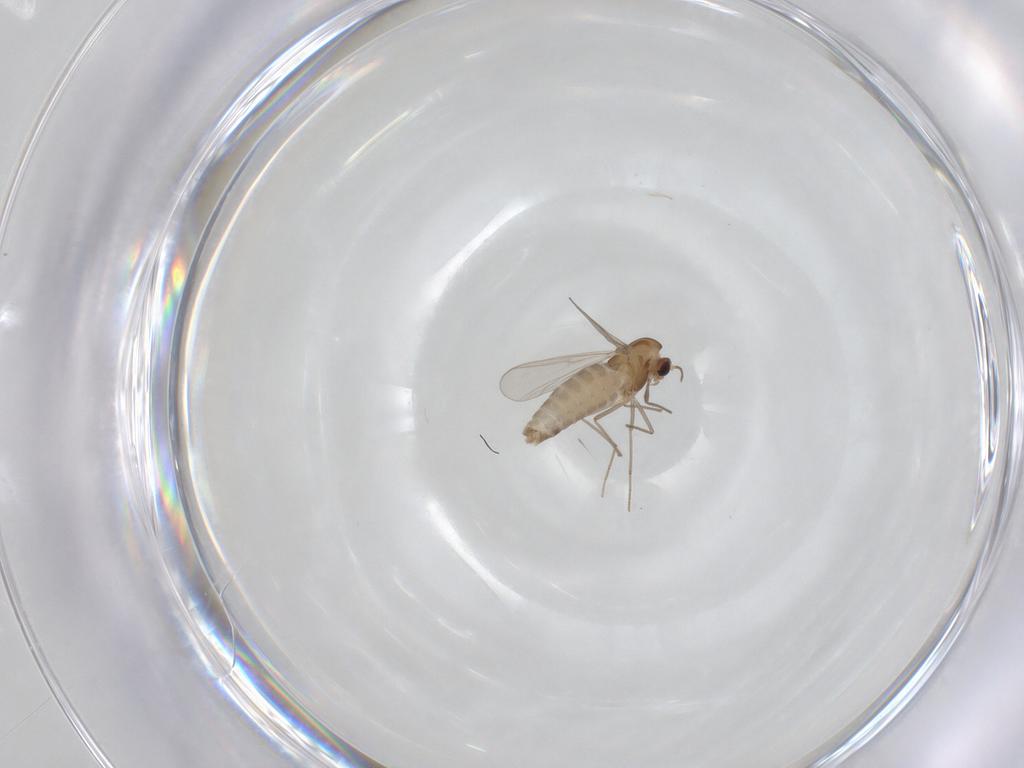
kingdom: Animalia
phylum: Arthropoda
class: Insecta
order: Diptera
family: Chironomidae
